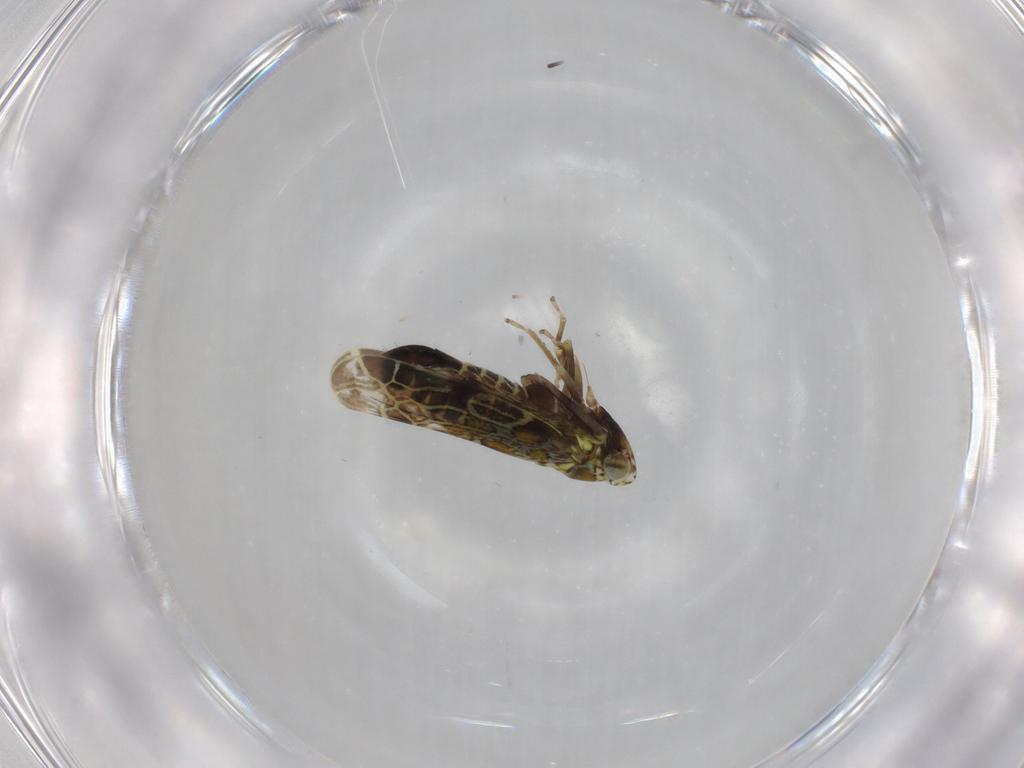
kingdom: Animalia
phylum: Arthropoda
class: Insecta
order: Hemiptera
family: Cicadellidae
